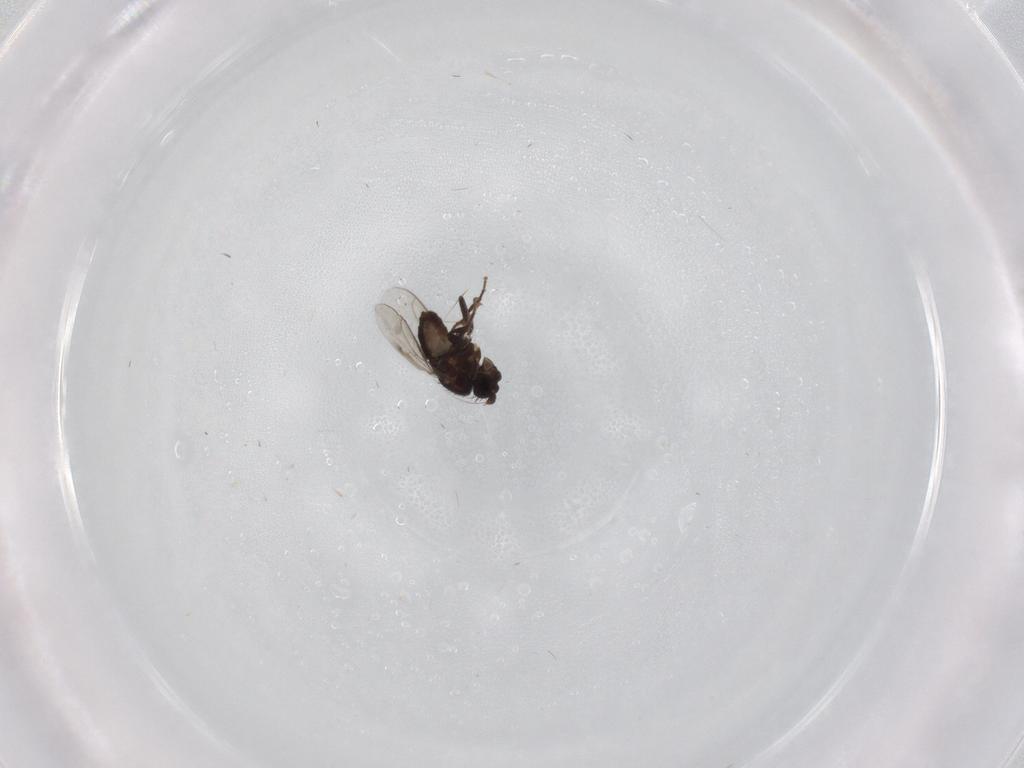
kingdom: Animalia
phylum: Arthropoda
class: Insecta
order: Diptera
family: Sphaeroceridae
